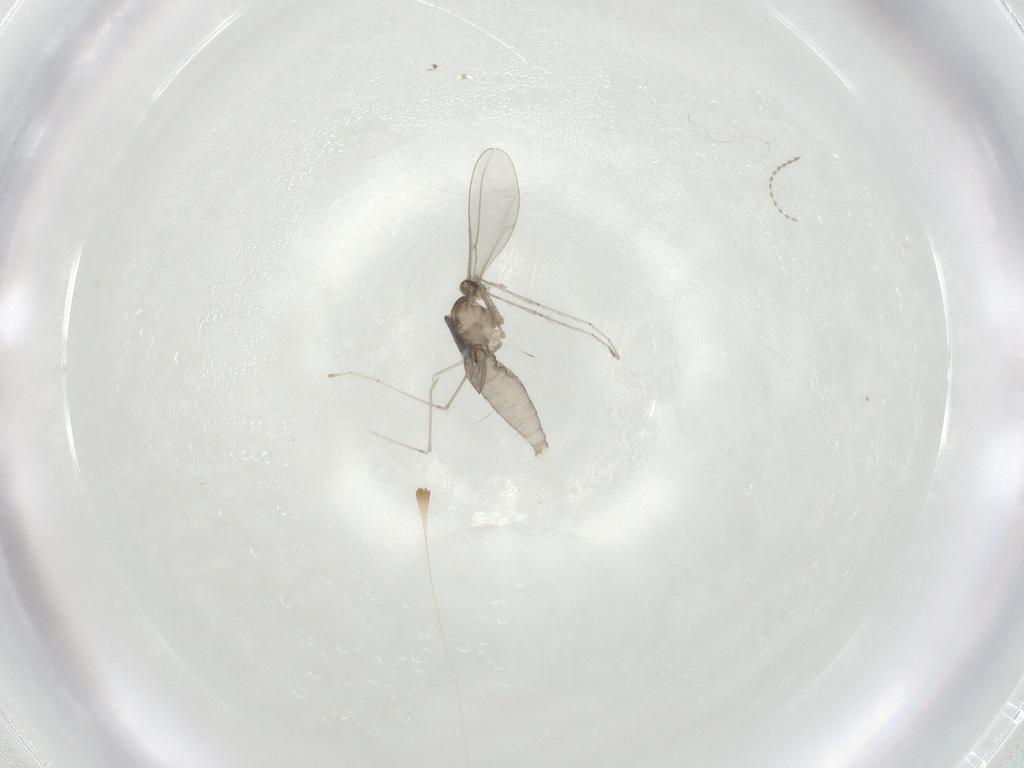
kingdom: Animalia
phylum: Arthropoda
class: Insecta
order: Diptera
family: Cecidomyiidae
